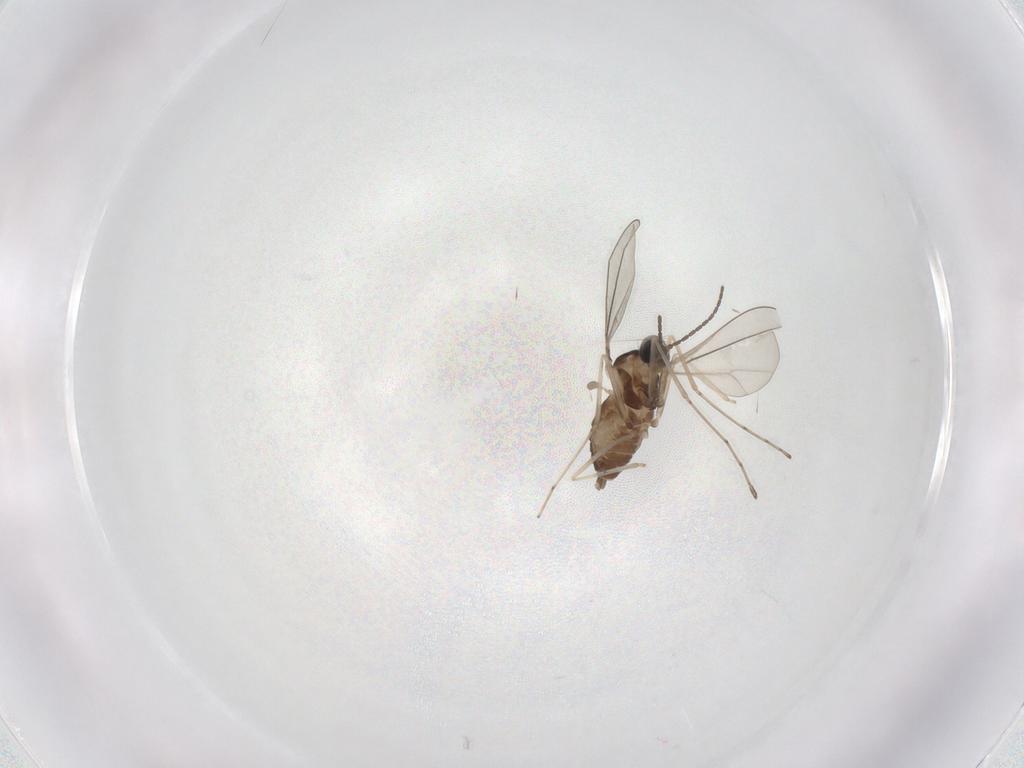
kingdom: Animalia
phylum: Arthropoda
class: Insecta
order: Diptera
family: Cecidomyiidae
